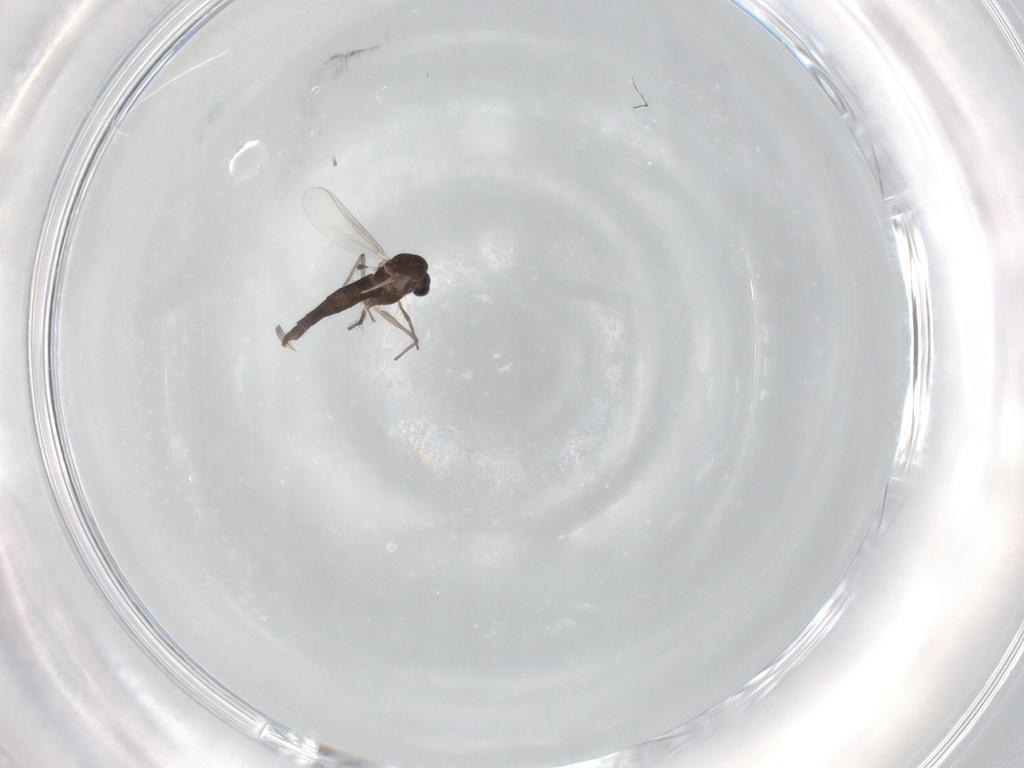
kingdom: Animalia
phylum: Arthropoda
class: Insecta
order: Diptera
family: Chironomidae
